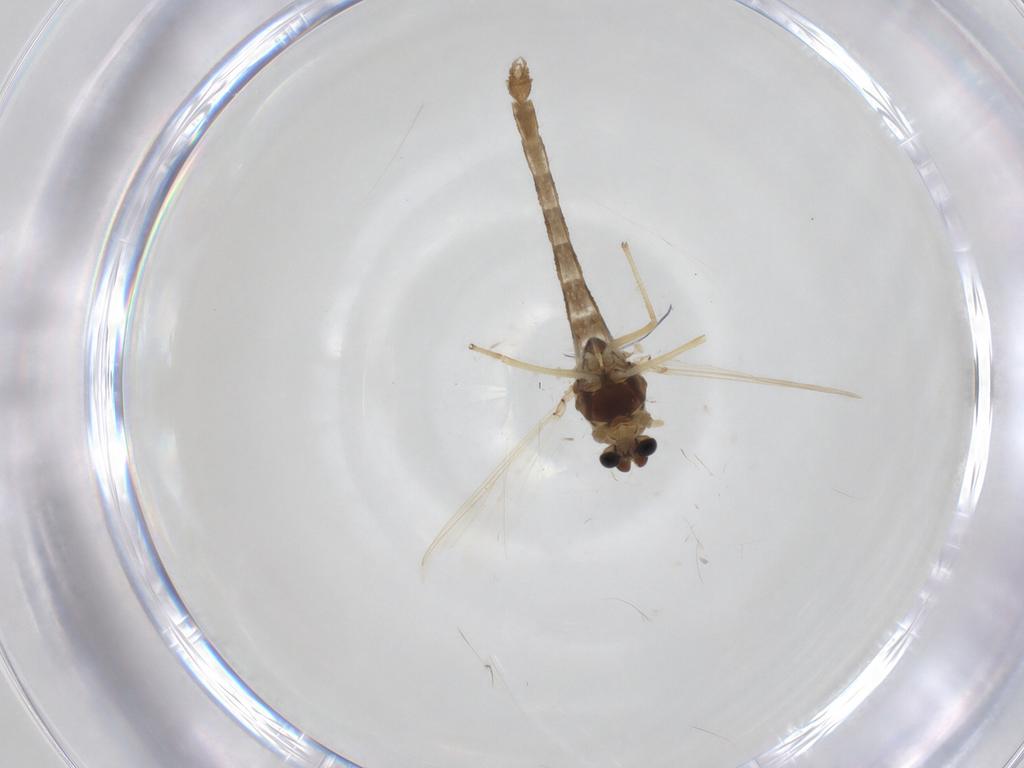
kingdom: Animalia
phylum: Arthropoda
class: Insecta
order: Diptera
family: Chironomidae
